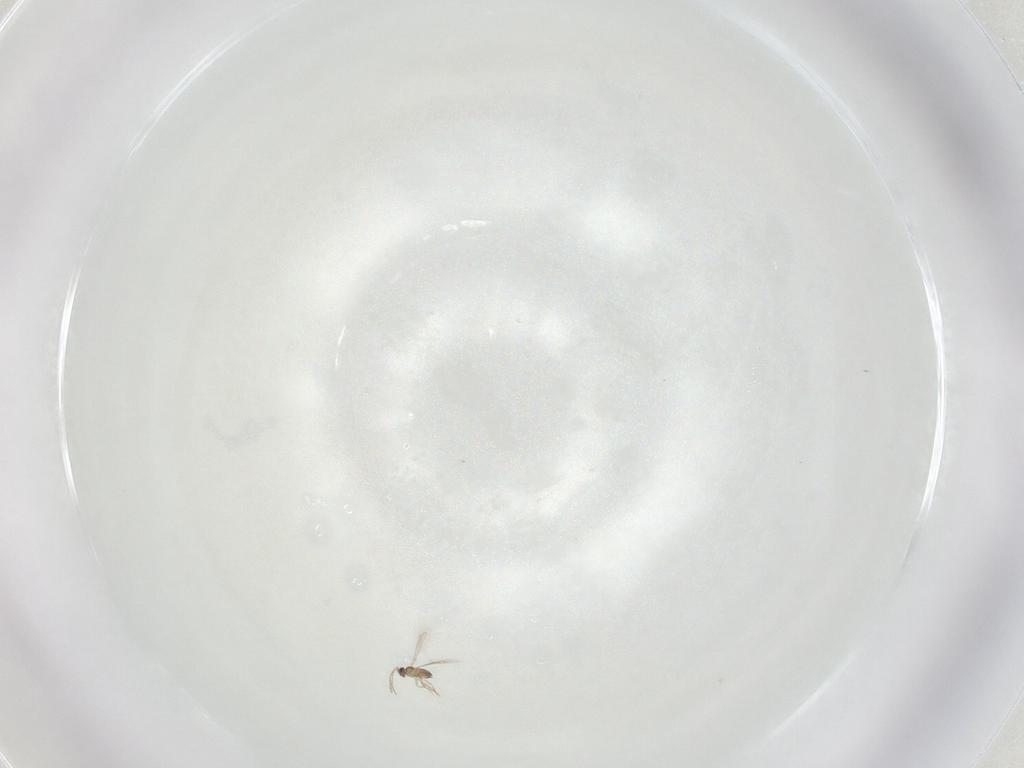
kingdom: Animalia
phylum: Arthropoda
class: Insecta
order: Hymenoptera
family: Mymaridae
